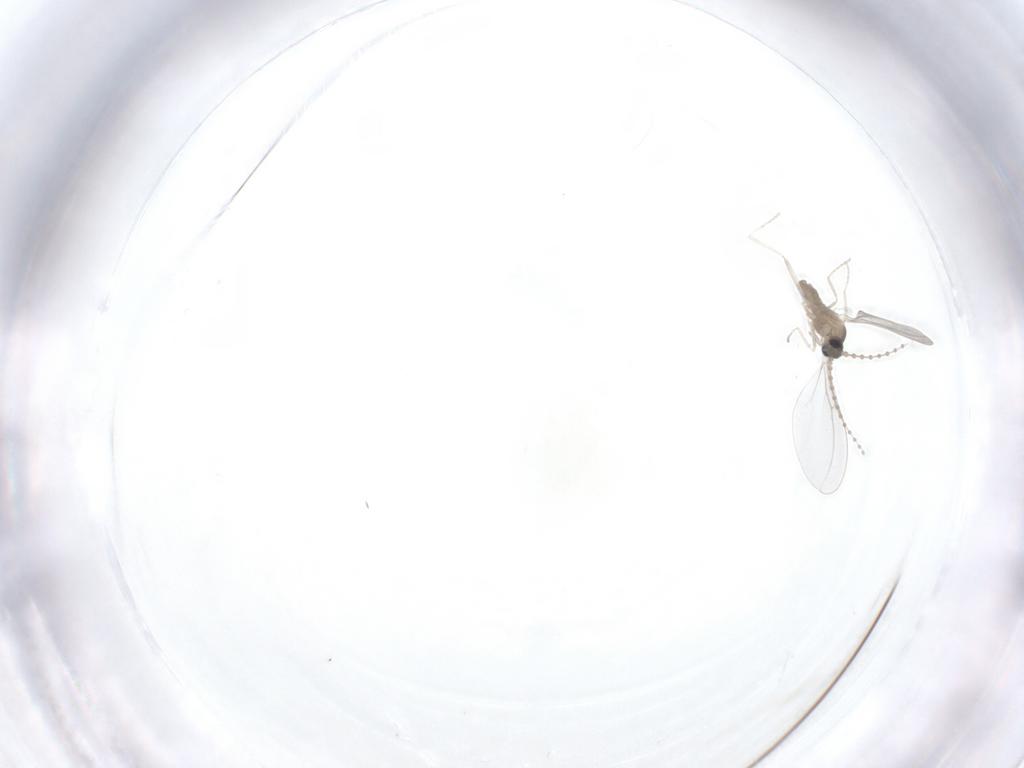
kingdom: Animalia
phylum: Arthropoda
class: Insecta
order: Diptera
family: Cecidomyiidae
